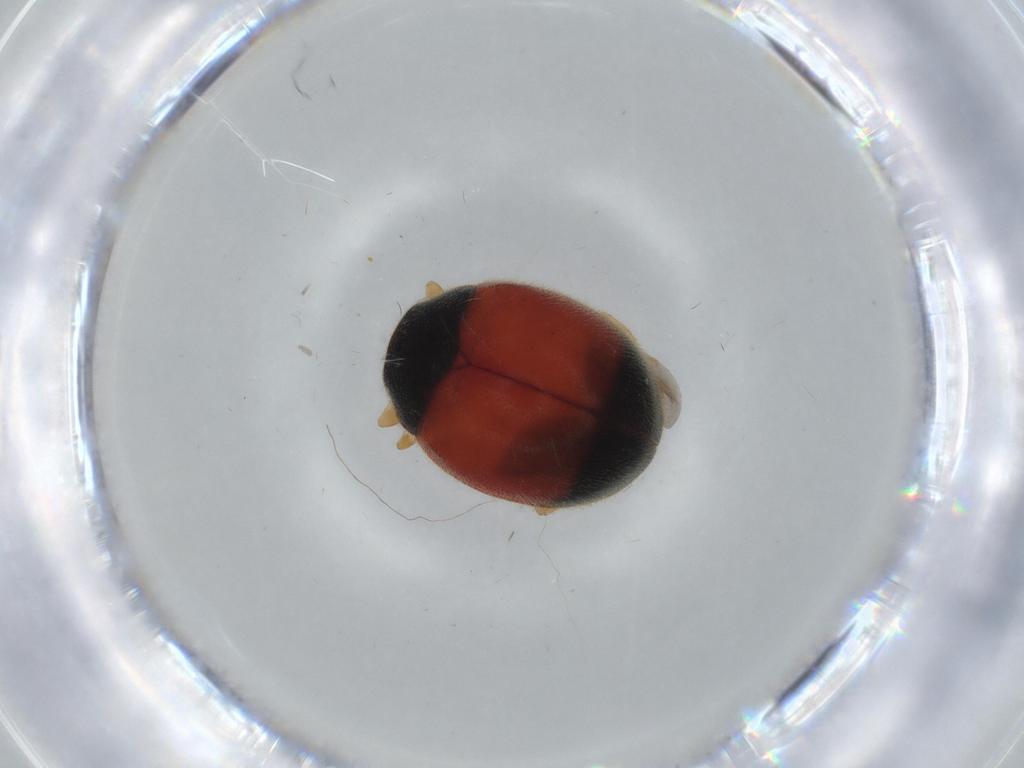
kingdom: Animalia
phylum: Arthropoda
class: Insecta
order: Coleoptera
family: Coccinellidae
